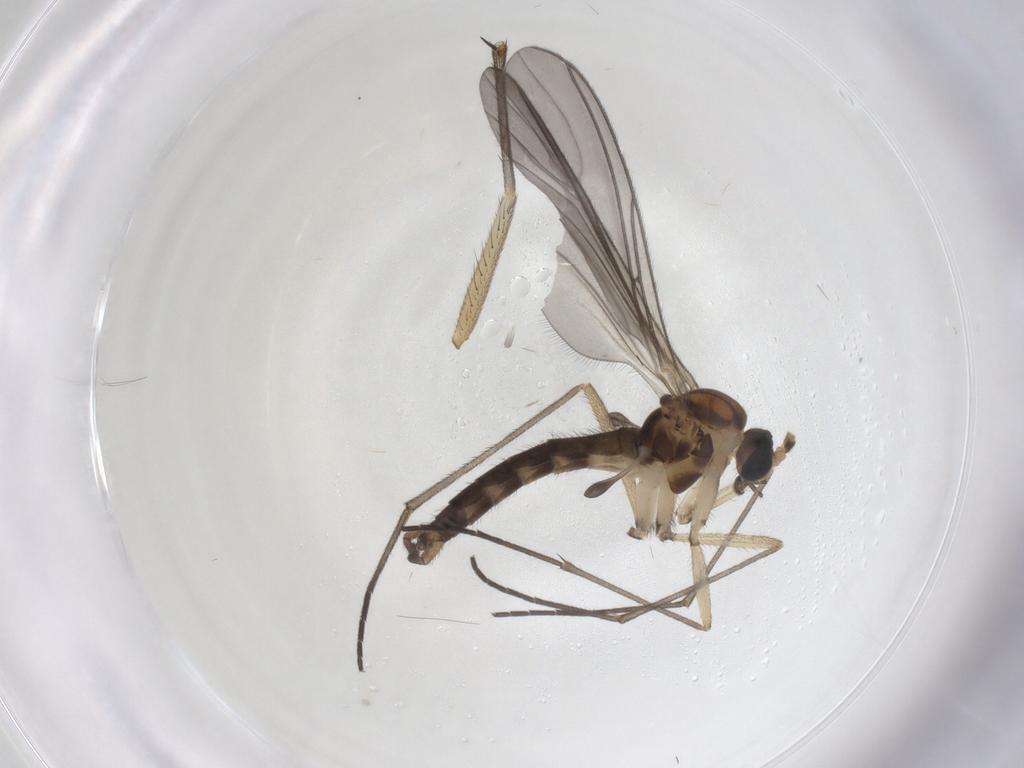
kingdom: Animalia
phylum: Arthropoda
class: Insecta
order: Diptera
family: Sciaridae
